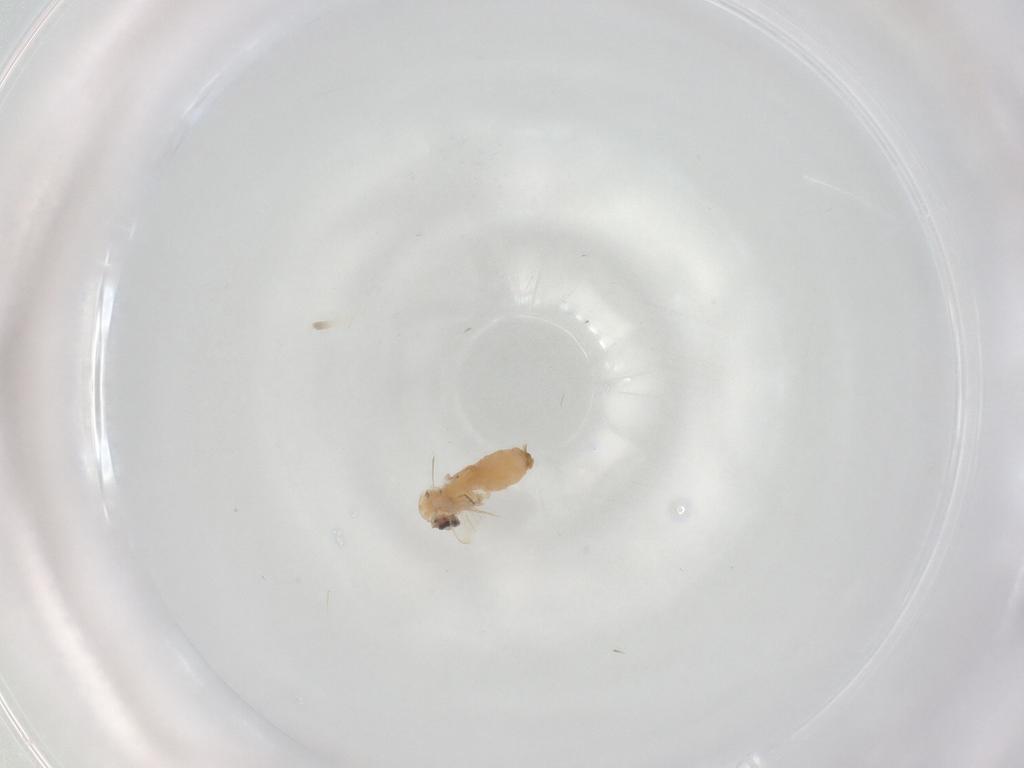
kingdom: Animalia
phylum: Arthropoda
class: Insecta
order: Diptera
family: Psychodidae
